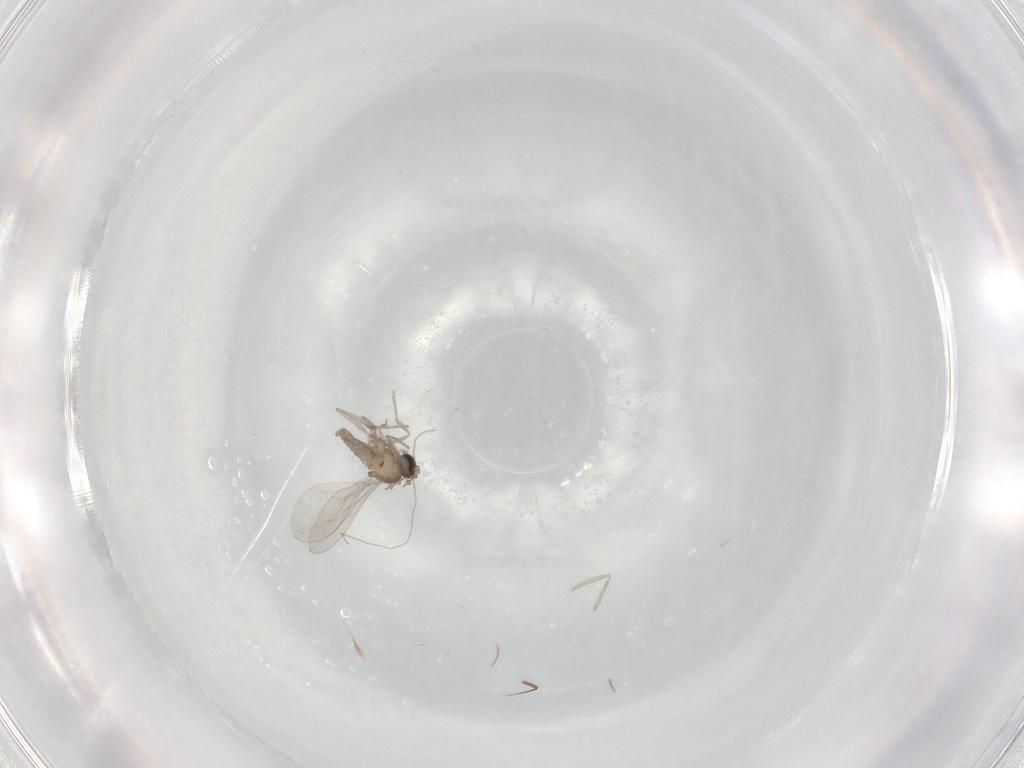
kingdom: Animalia
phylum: Arthropoda
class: Insecta
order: Diptera
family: Cecidomyiidae
